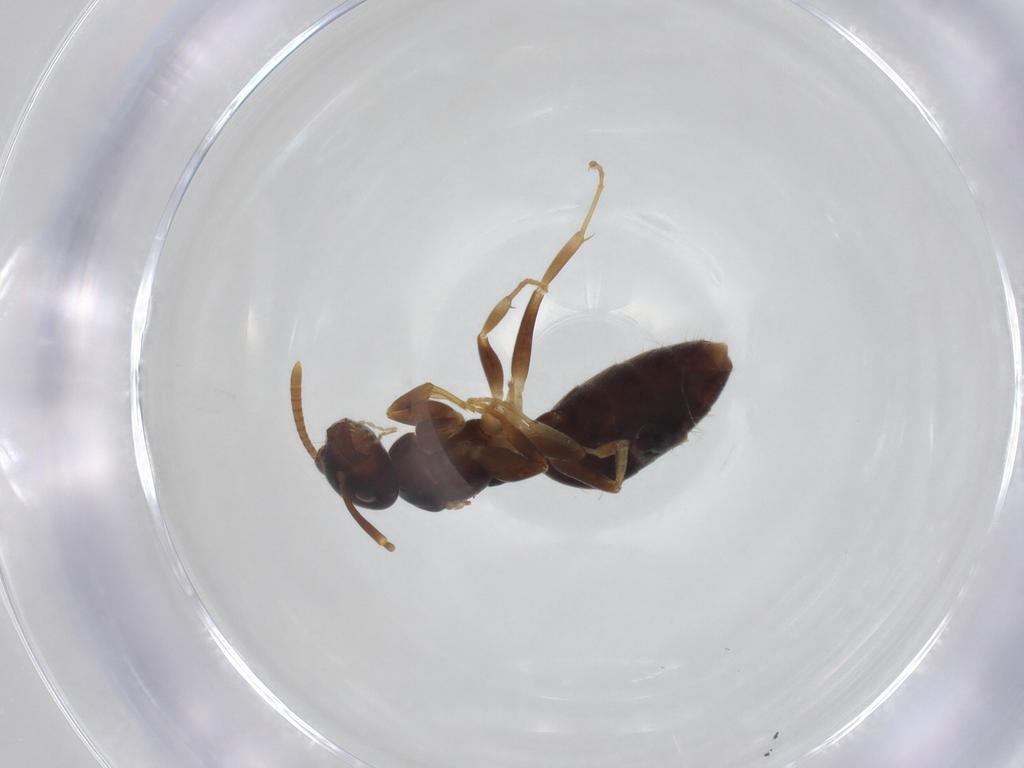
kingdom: Animalia
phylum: Arthropoda
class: Insecta
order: Hymenoptera
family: Formicidae
